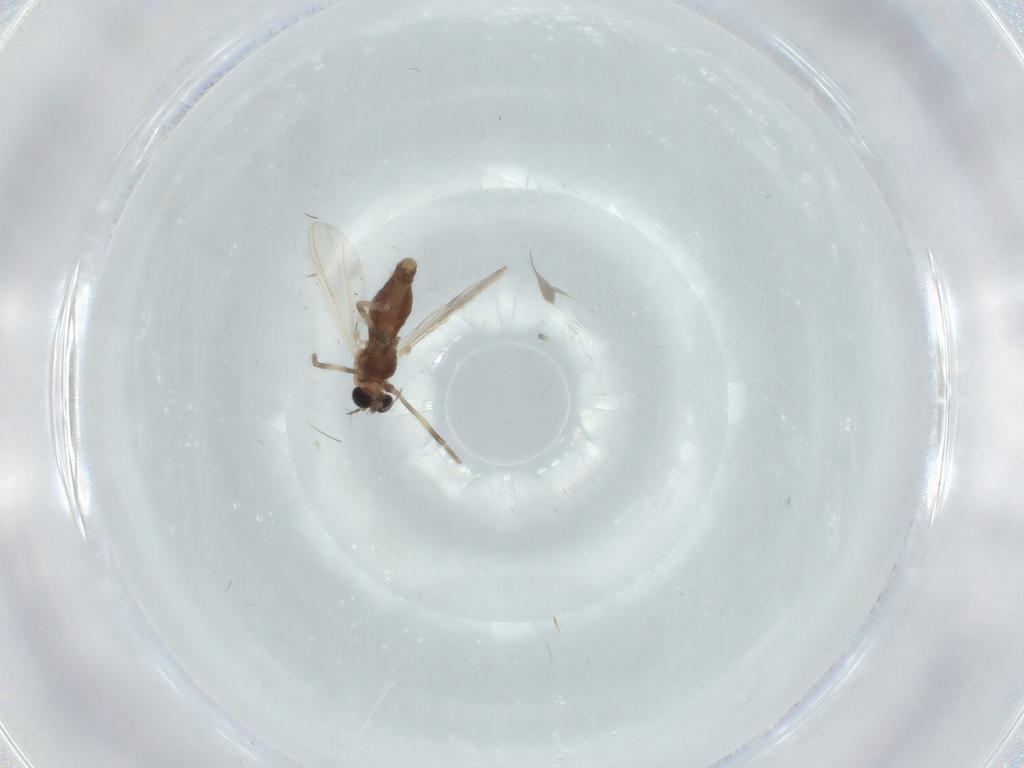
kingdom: Animalia
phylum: Arthropoda
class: Insecta
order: Diptera
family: Chironomidae
